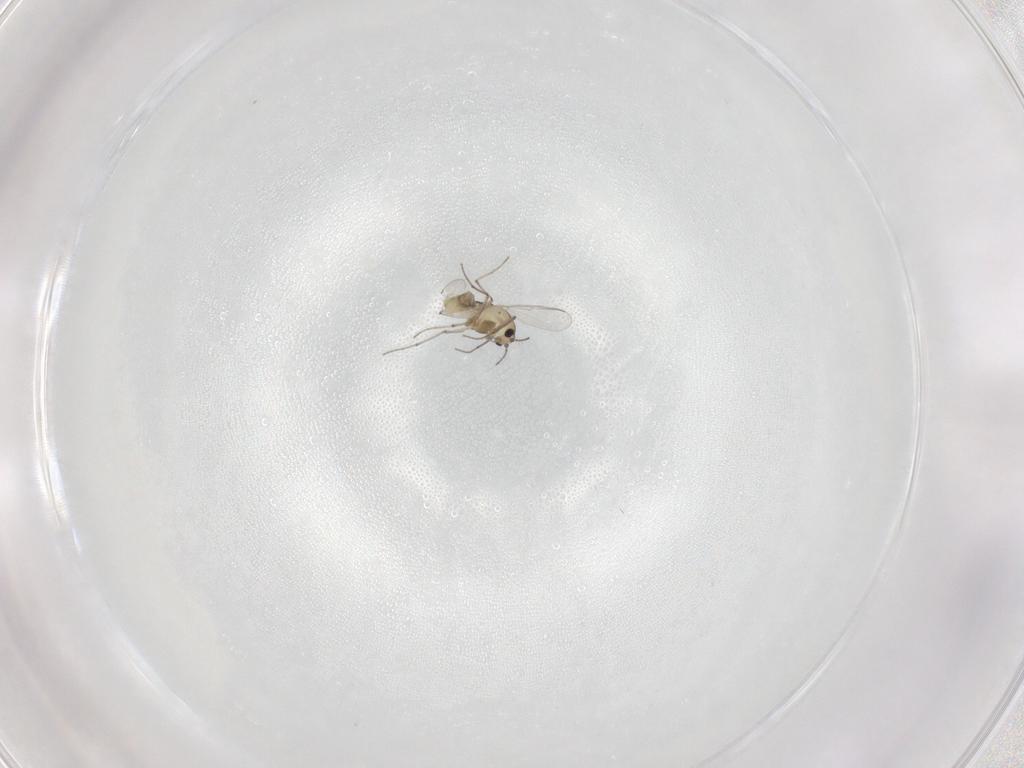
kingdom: Animalia
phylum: Arthropoda
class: Insecta
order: Diptera
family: Chironomidae
